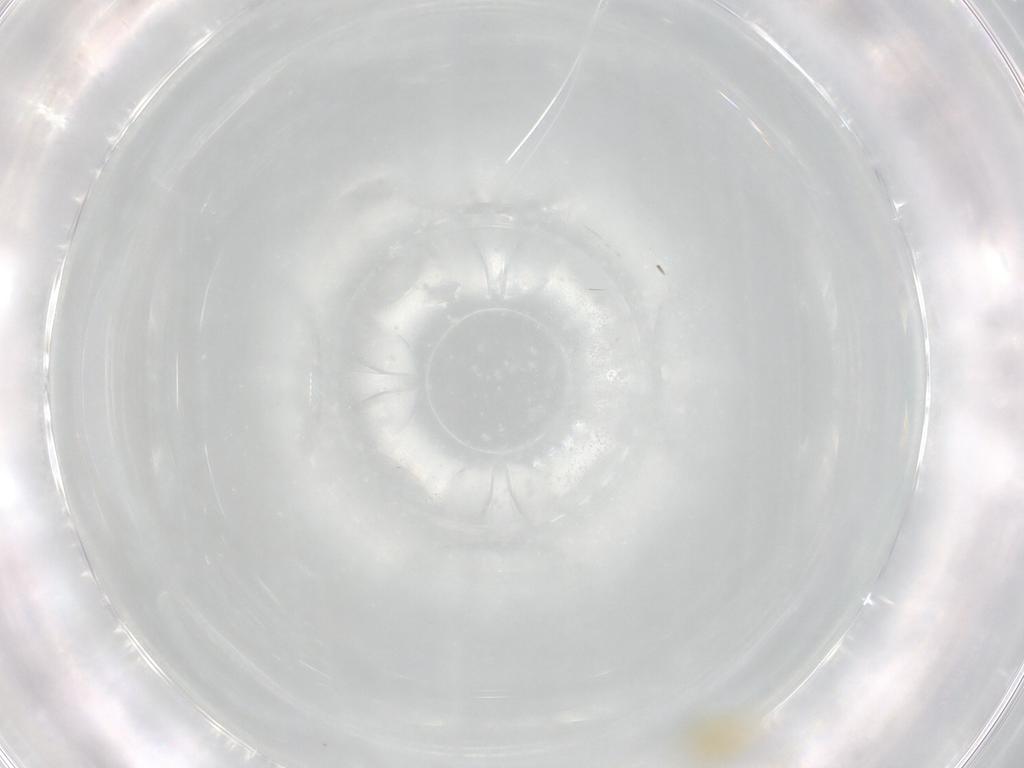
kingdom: Animalia
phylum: Arthropoda
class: Insecta
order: Hemiptera
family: Aleyrodidae
